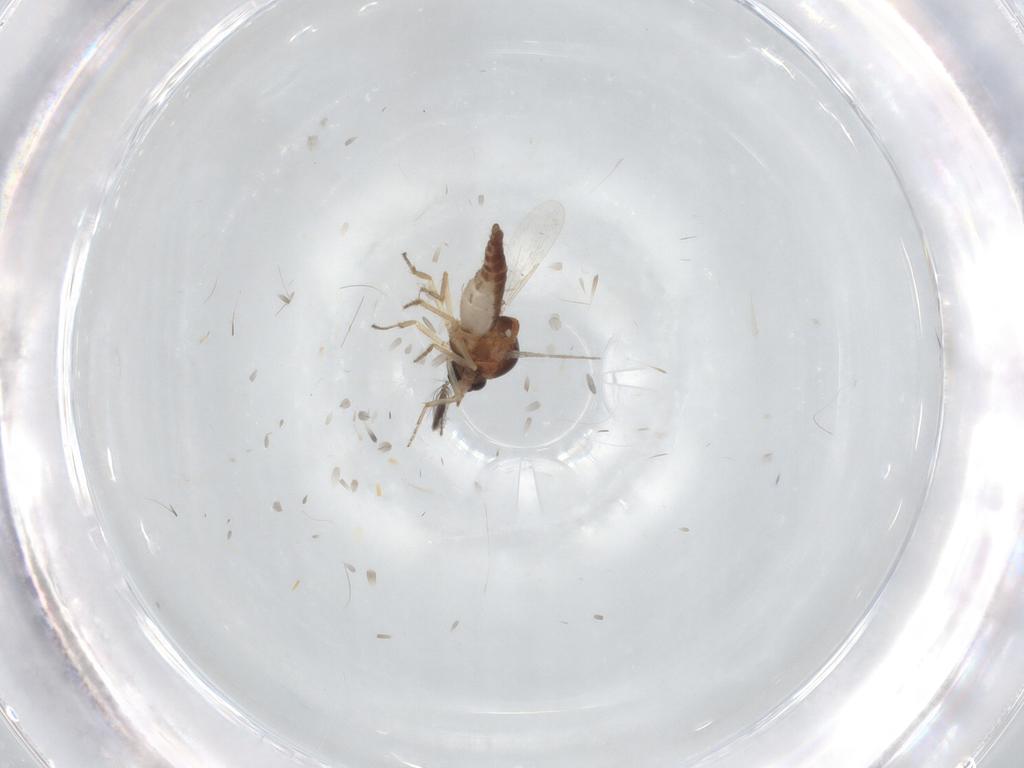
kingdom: Animalia
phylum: Arthropoda
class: Insecta
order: Diptera
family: Ceratopogonidae
